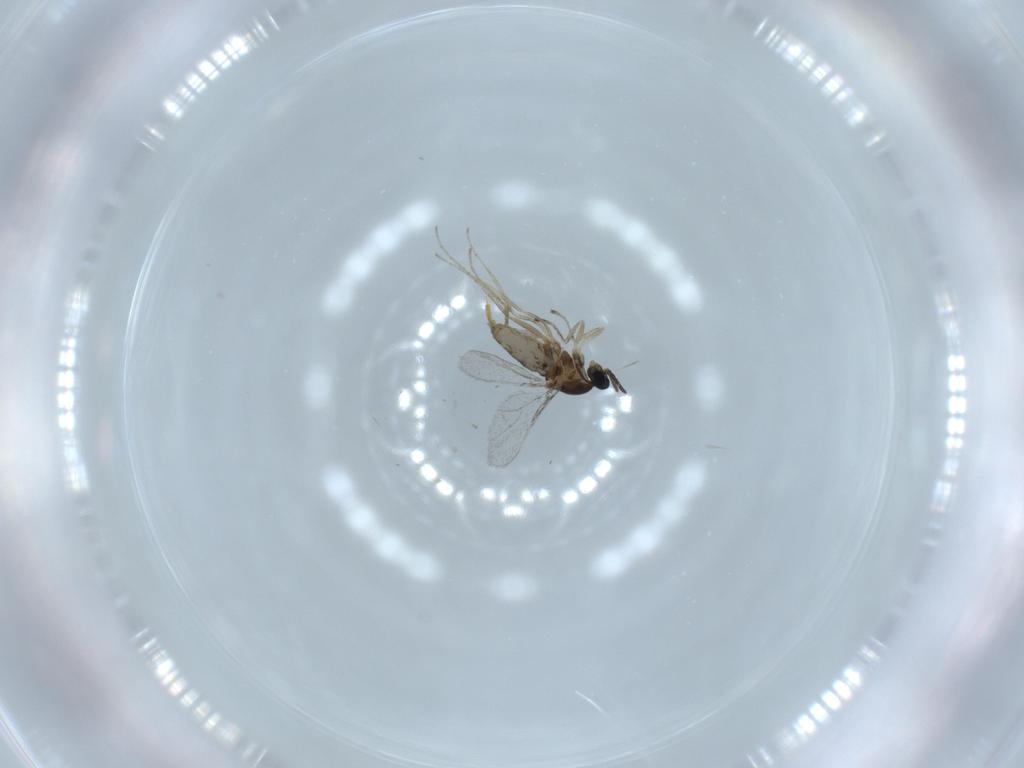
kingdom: Animalia
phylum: Arthropoda
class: Insecta
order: Diptera
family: Cecidomyiidae
